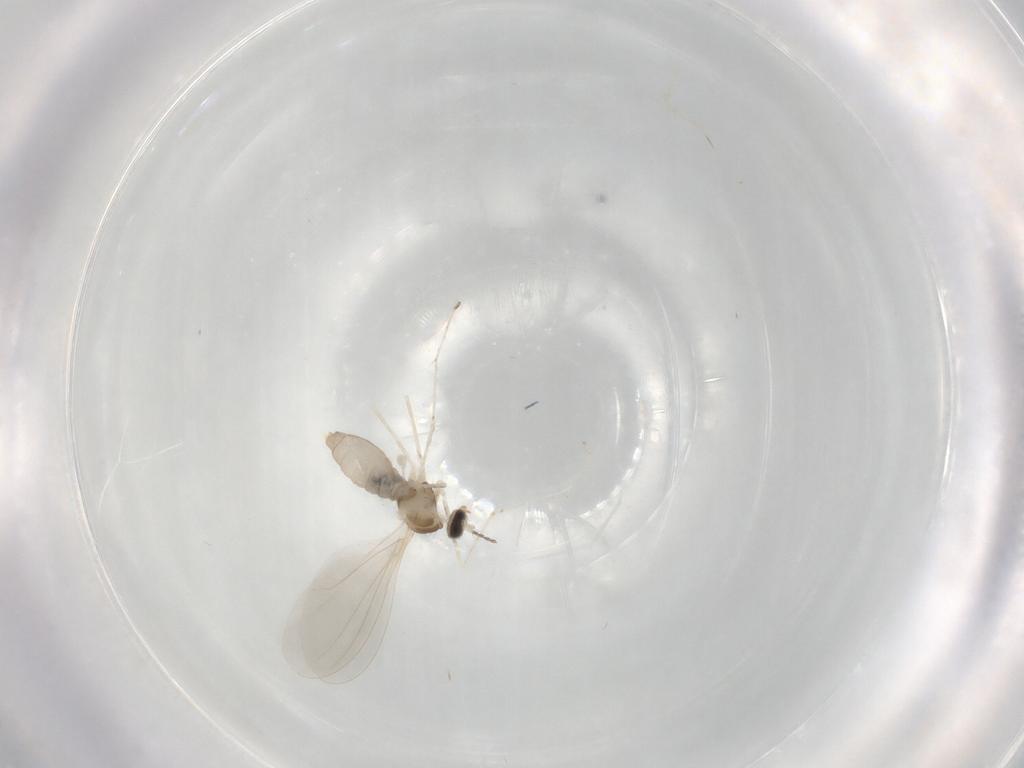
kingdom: Animalia
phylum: Arthropoda
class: Insecta
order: Diptera
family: Cecidomyiidae
